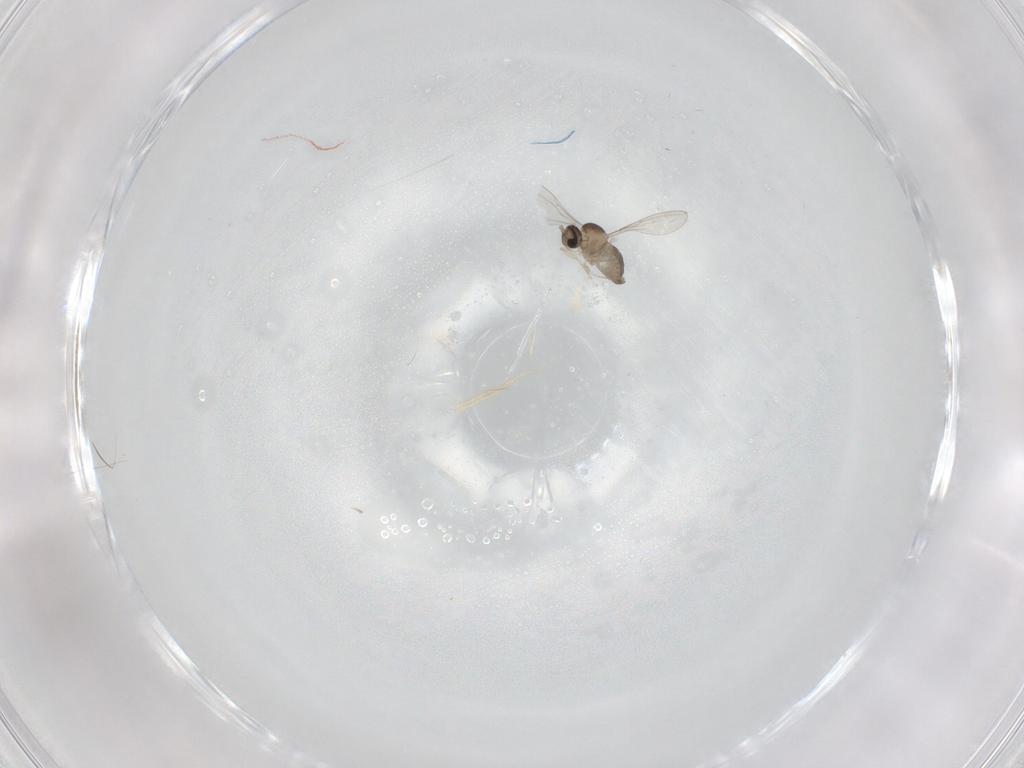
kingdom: Animalia
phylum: Arthropoda
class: Insecta
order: Diptera
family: Cecidomyiidae
